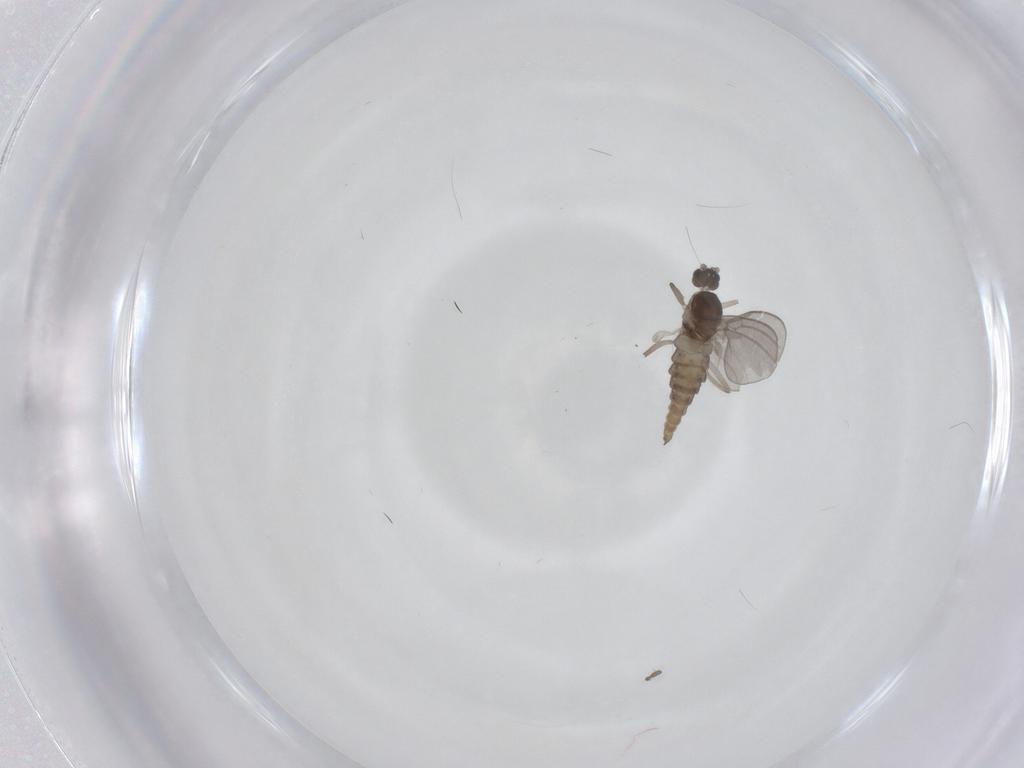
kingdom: Animalia
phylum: Arthropoda
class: Insecta
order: Diptera
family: Cecidomyiidae
